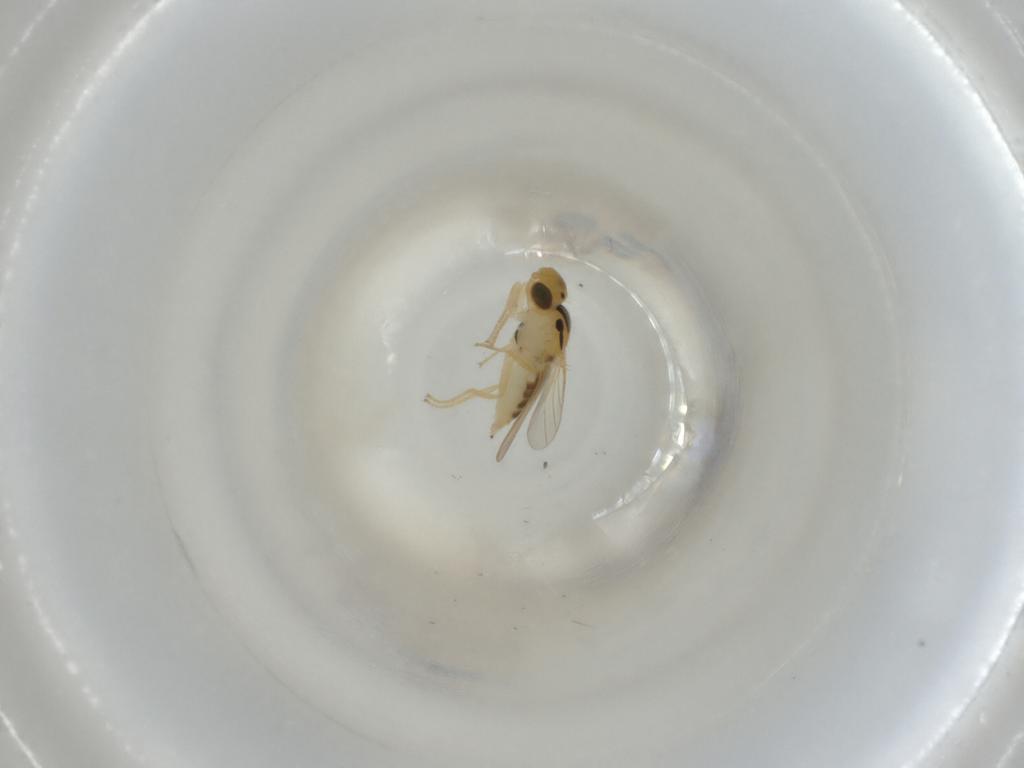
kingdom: Animalia
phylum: Arthropoda
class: Insecta
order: Diptera
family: Chloropidae
